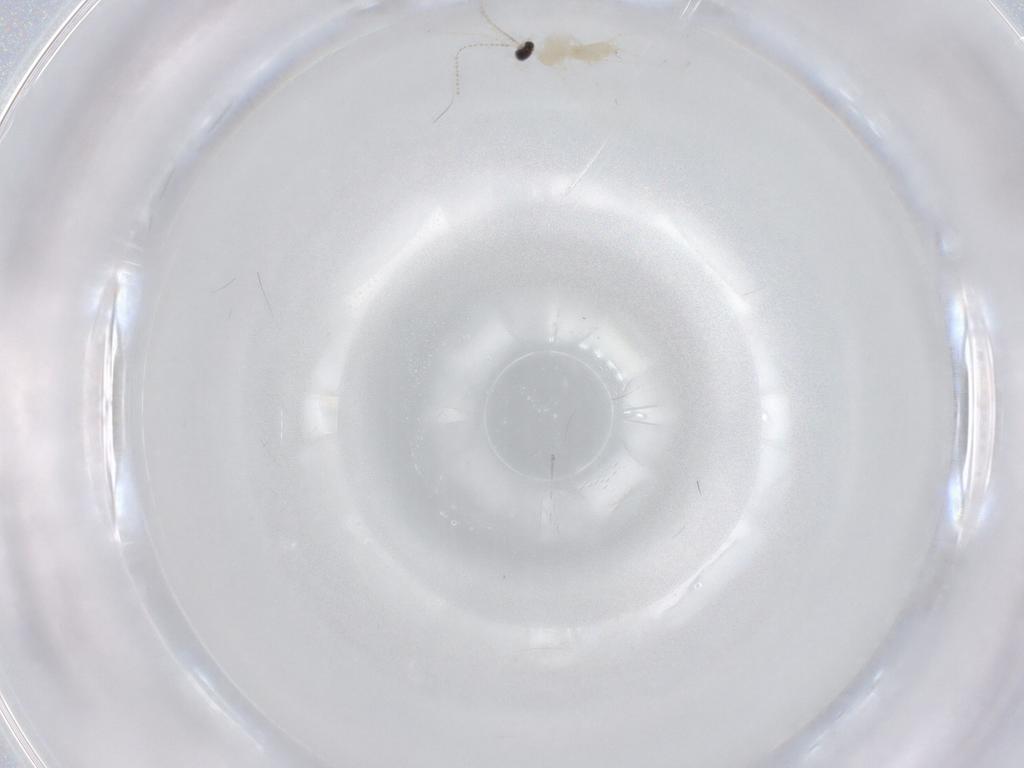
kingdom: Animalia
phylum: Arthropoda
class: Insecta
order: Diptera
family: Cecidomyiidae
